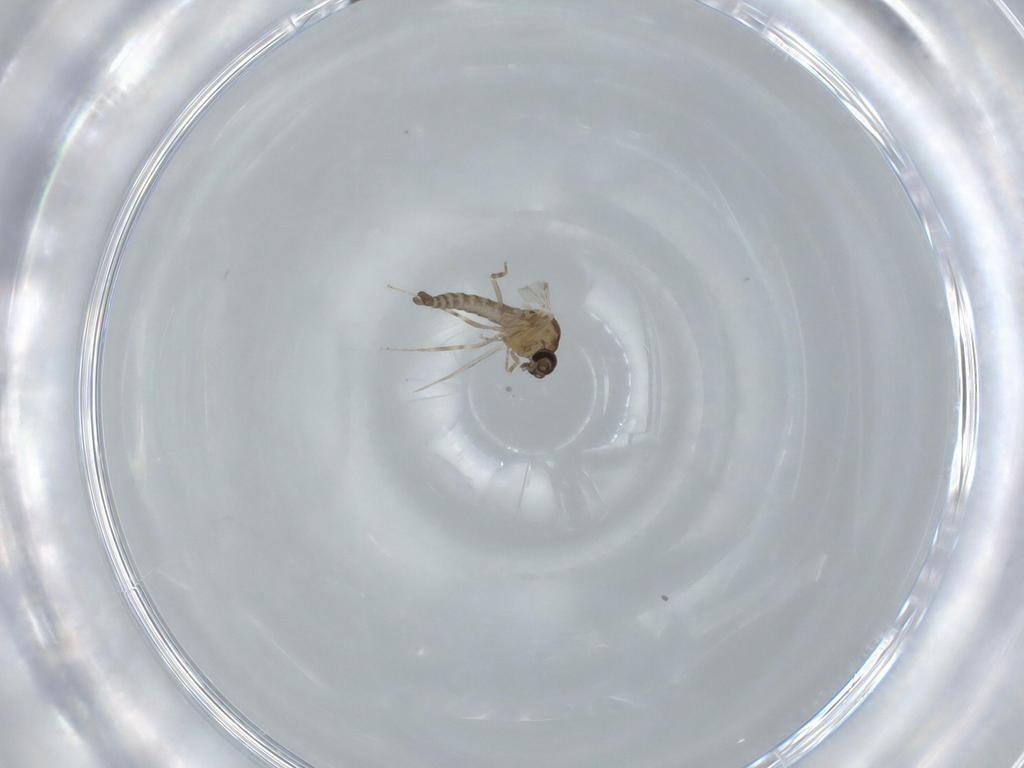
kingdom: Animalia
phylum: Arthropoda
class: Insecta
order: Diptera
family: Ceratopogonidae
